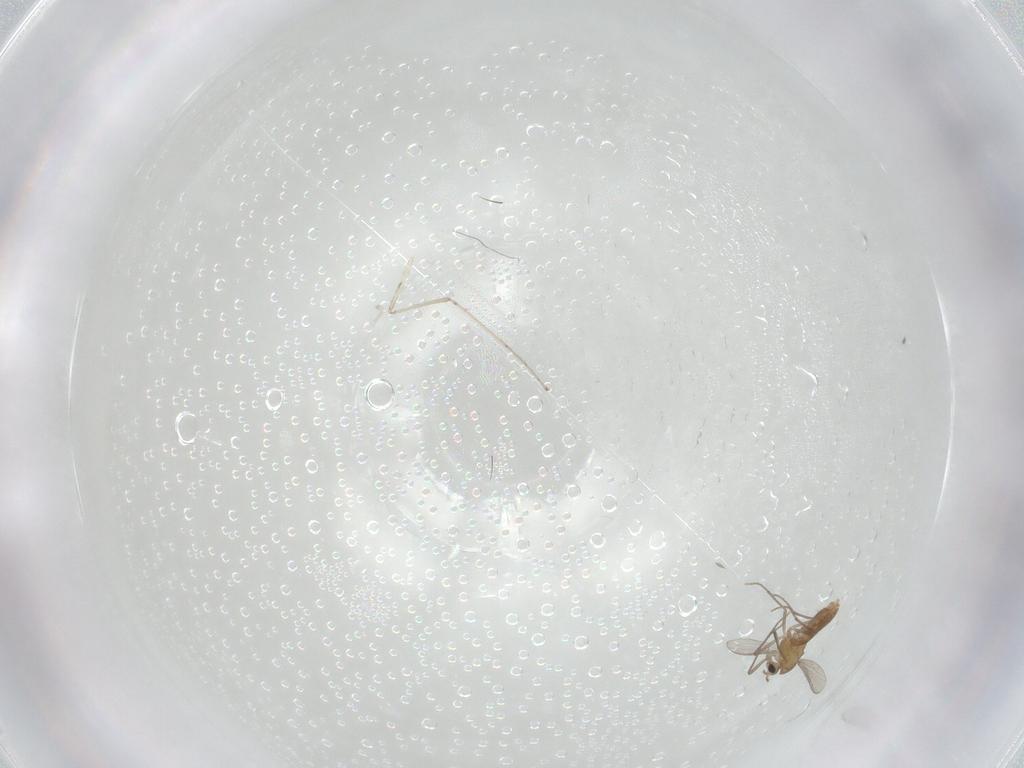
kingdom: Animalia
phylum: Arthropoda
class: Insecta
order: Diptera
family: Chironomidae
